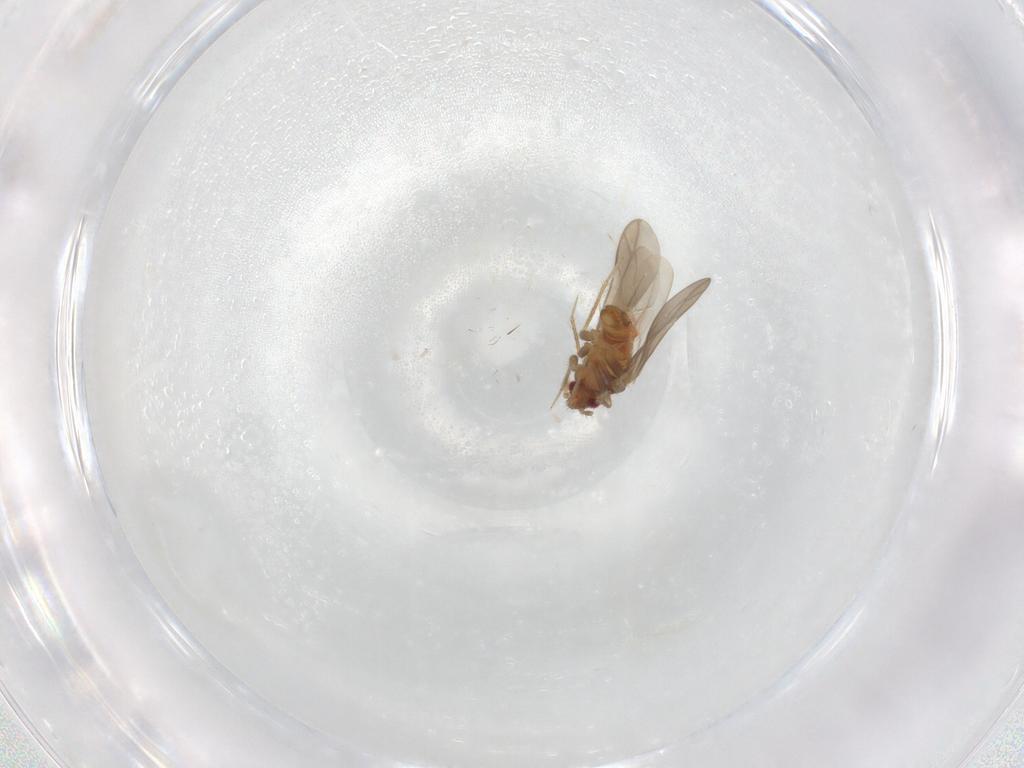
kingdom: Animalia
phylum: Arthropoda
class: Insecta
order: Hemiptera
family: Ceratocombidae
